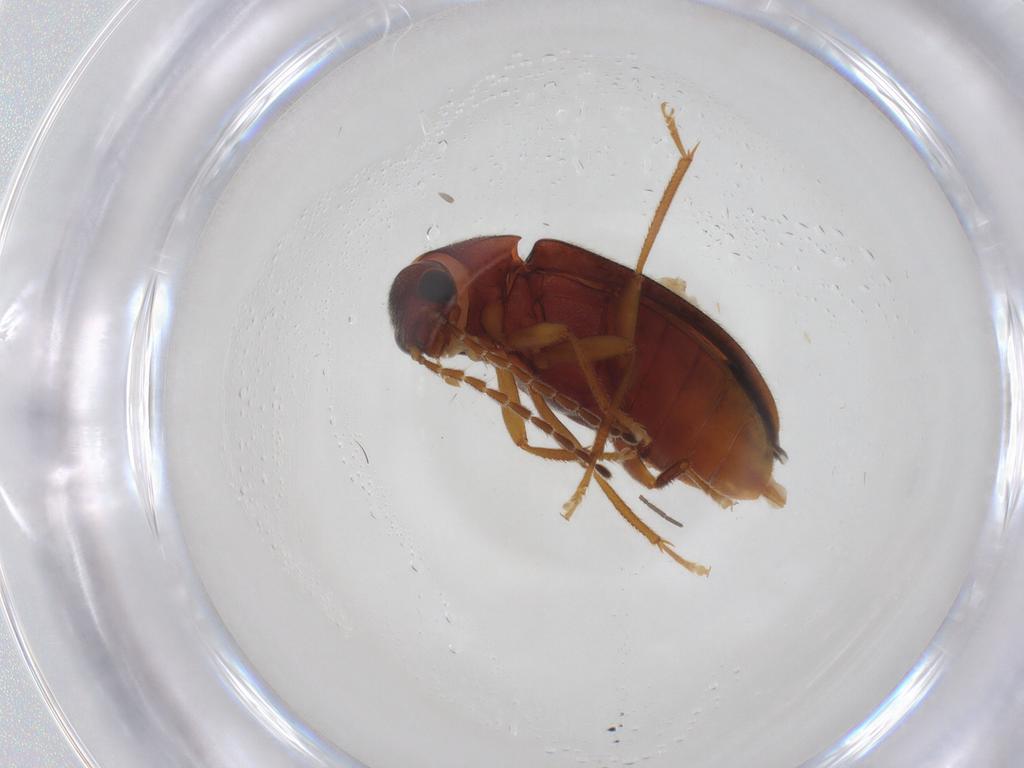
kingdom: Animalia
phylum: Arthropoda
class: Insecta
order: Coleoptera
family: Ptilodactylidae
